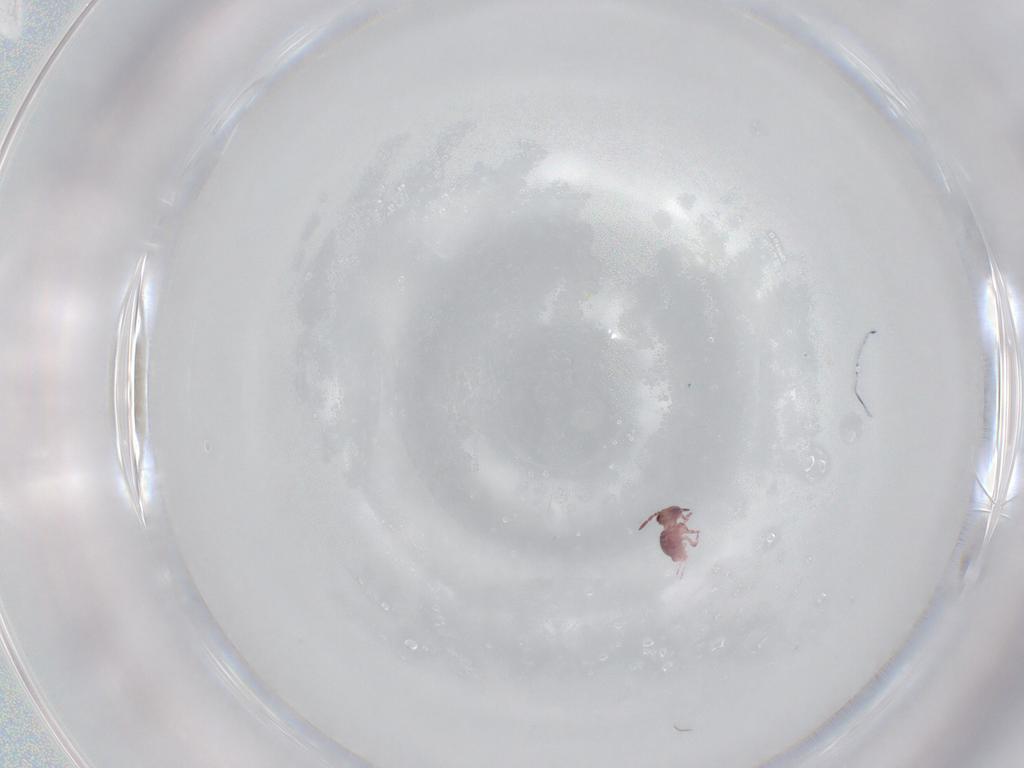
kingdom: Animalia
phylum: Arthropoda
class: Collembola
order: Symphypleona
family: Sminthurididae
